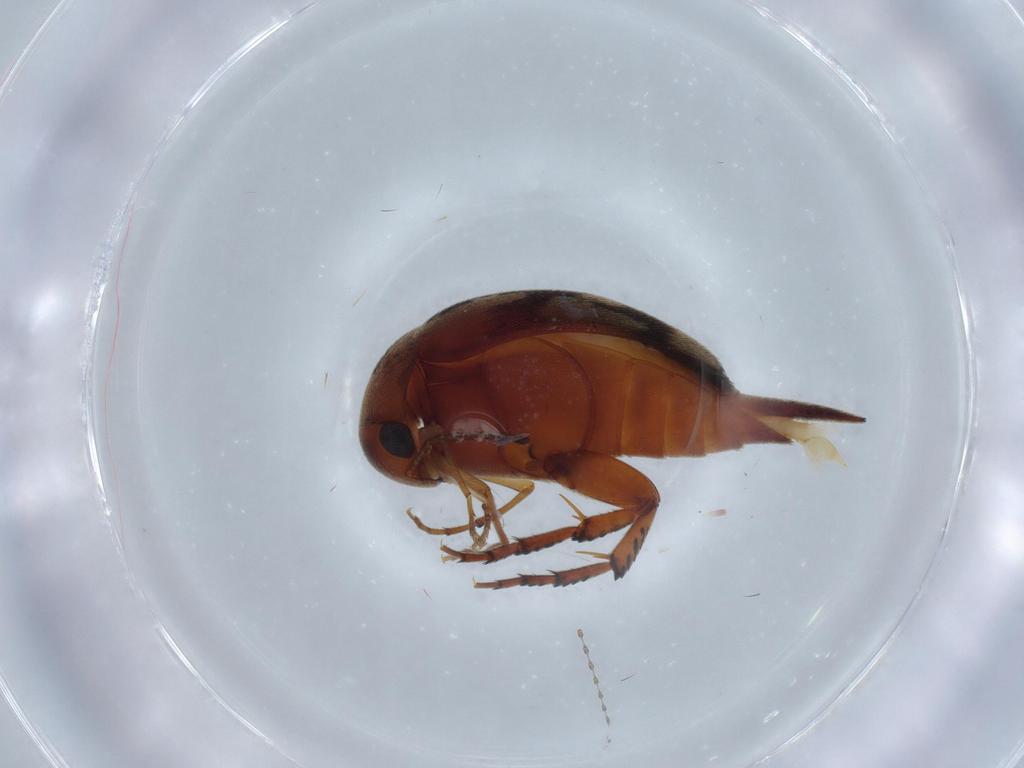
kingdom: Animalia
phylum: Arthropoda
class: Insecta
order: Coleoptera
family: Mordellidae
